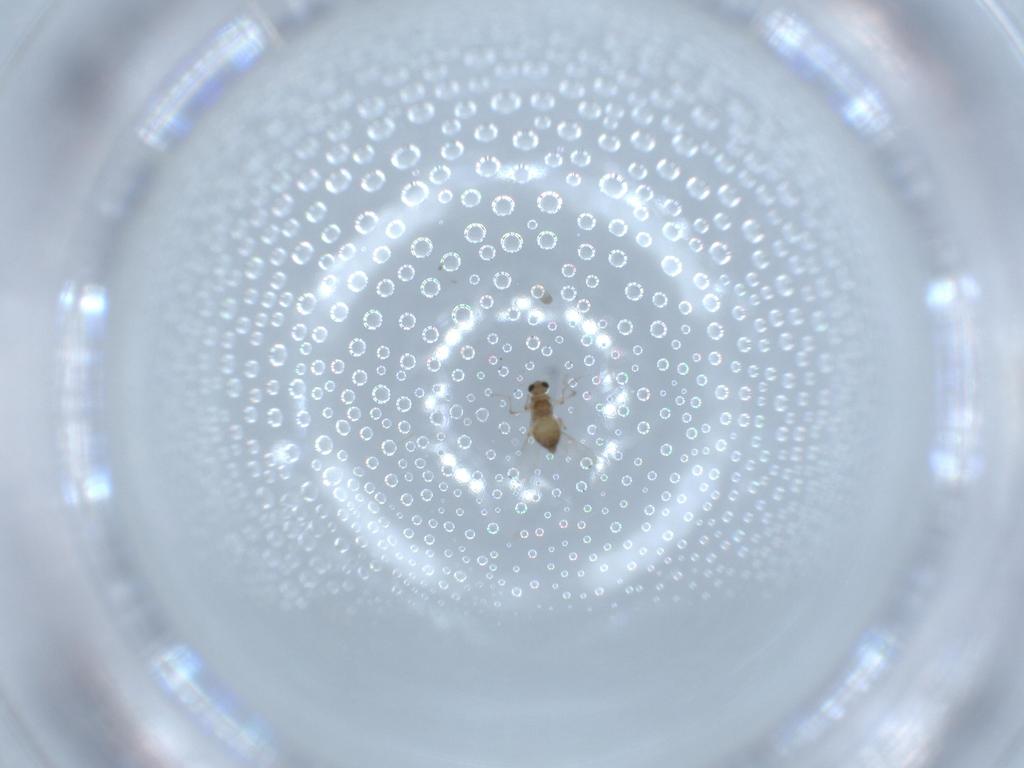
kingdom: Animalia
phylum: Arthropoda
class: Insecta
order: Diptera
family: Chironomidae
